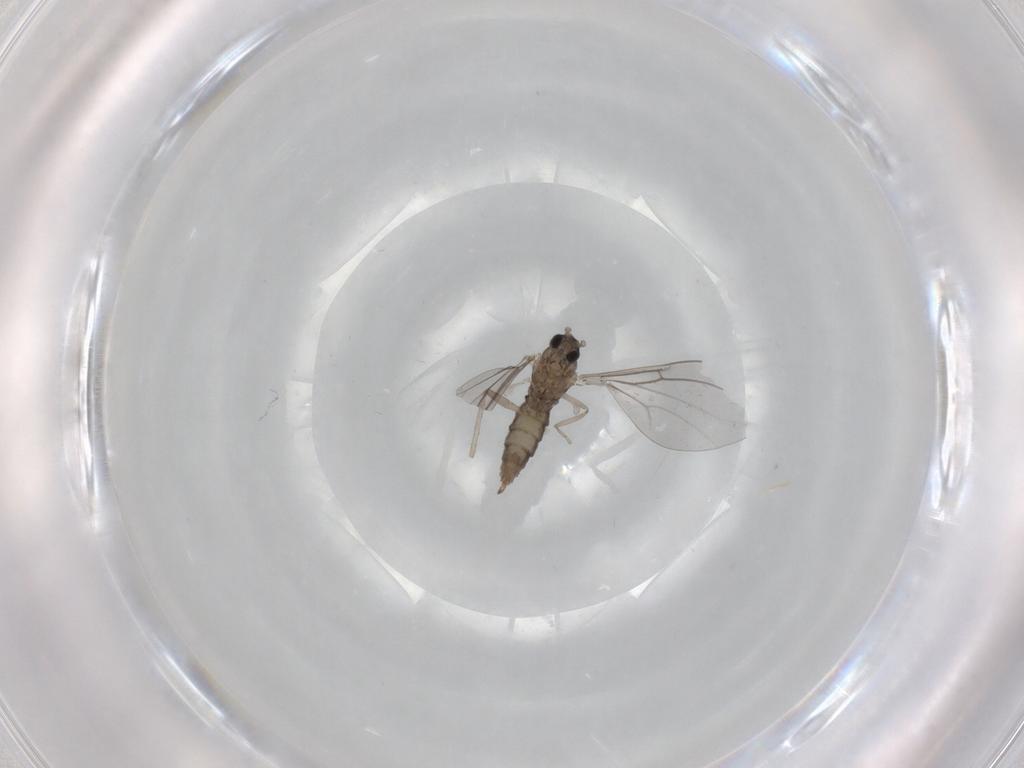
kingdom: Animalia
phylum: Arthropoda
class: Insecta
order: Diptera
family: Cecidomyiidae
